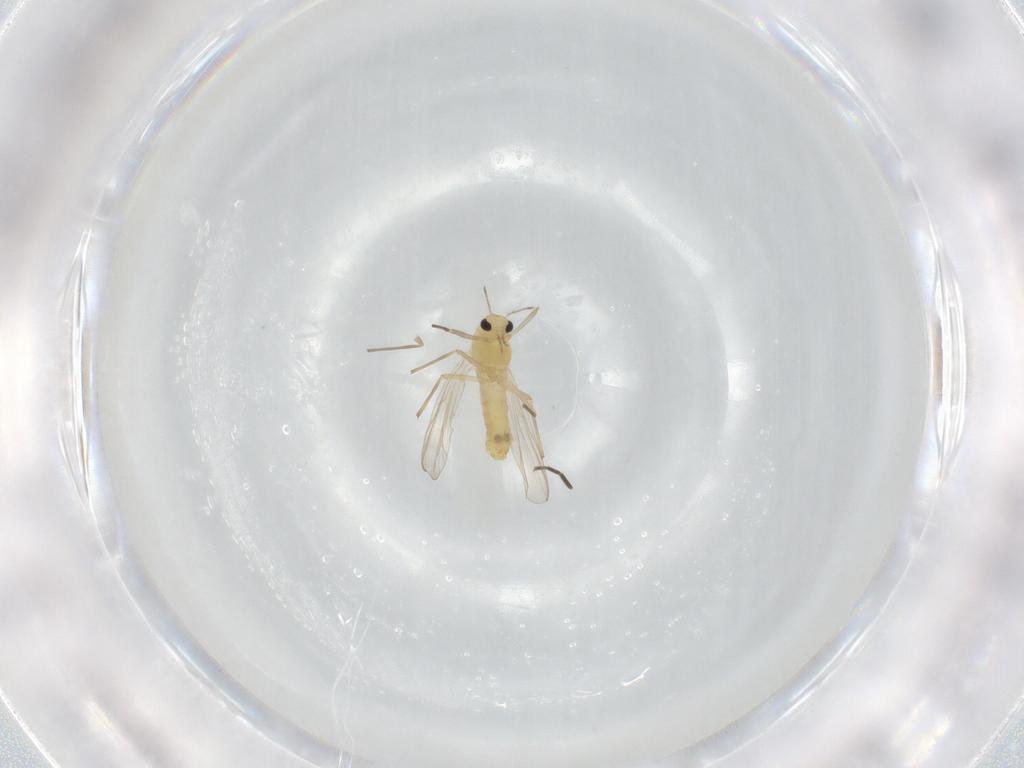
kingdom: Animalia
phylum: Arthropoda
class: Insecta
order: Diptera
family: Chironomidae
